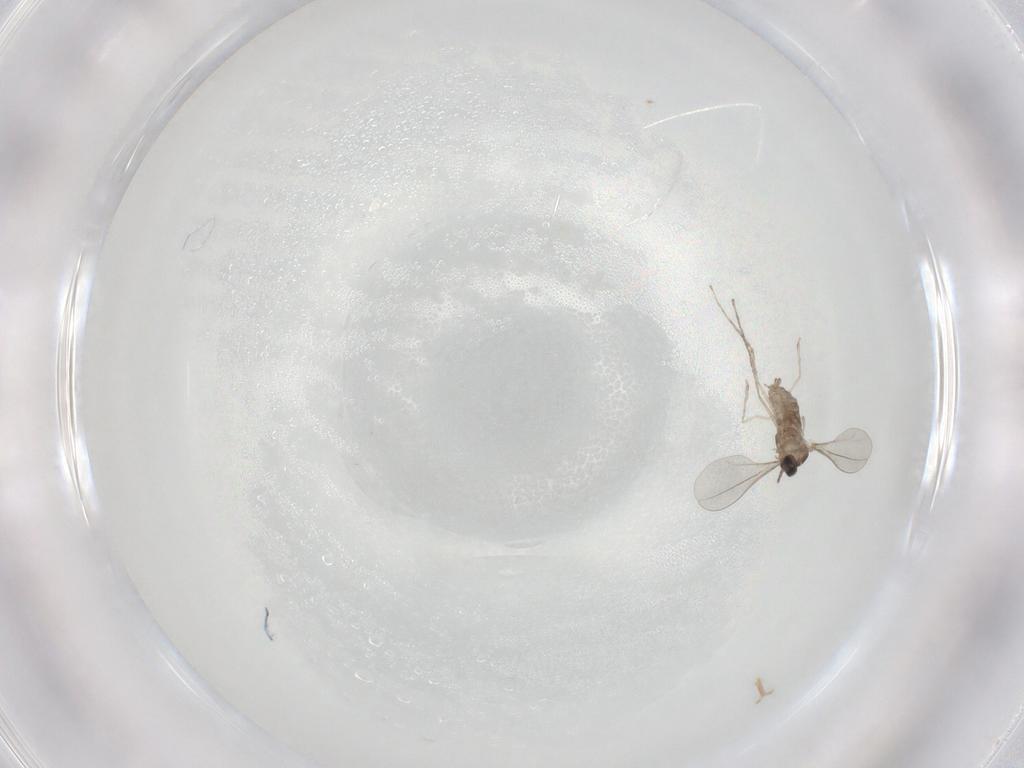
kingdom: Animalia
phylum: Arthropoda
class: Insecta
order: Diptera
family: Cecidomyiidae
